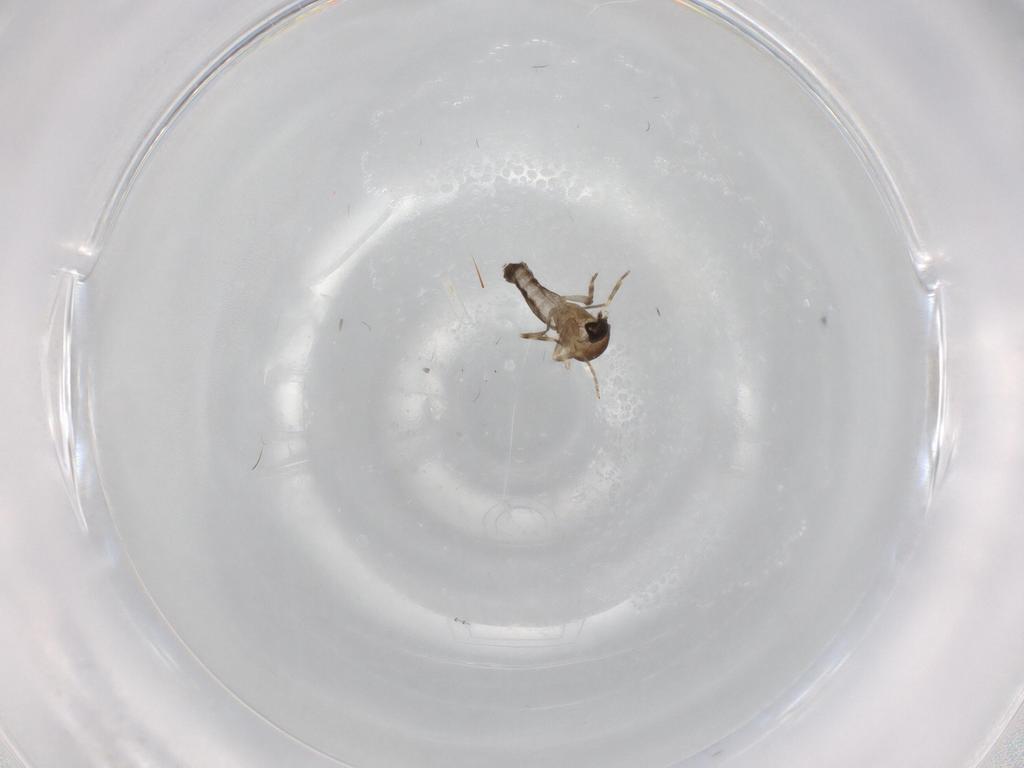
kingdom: Animalia
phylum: Arthropoda
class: Insecta
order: Diptera
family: Ceratopogonidae
